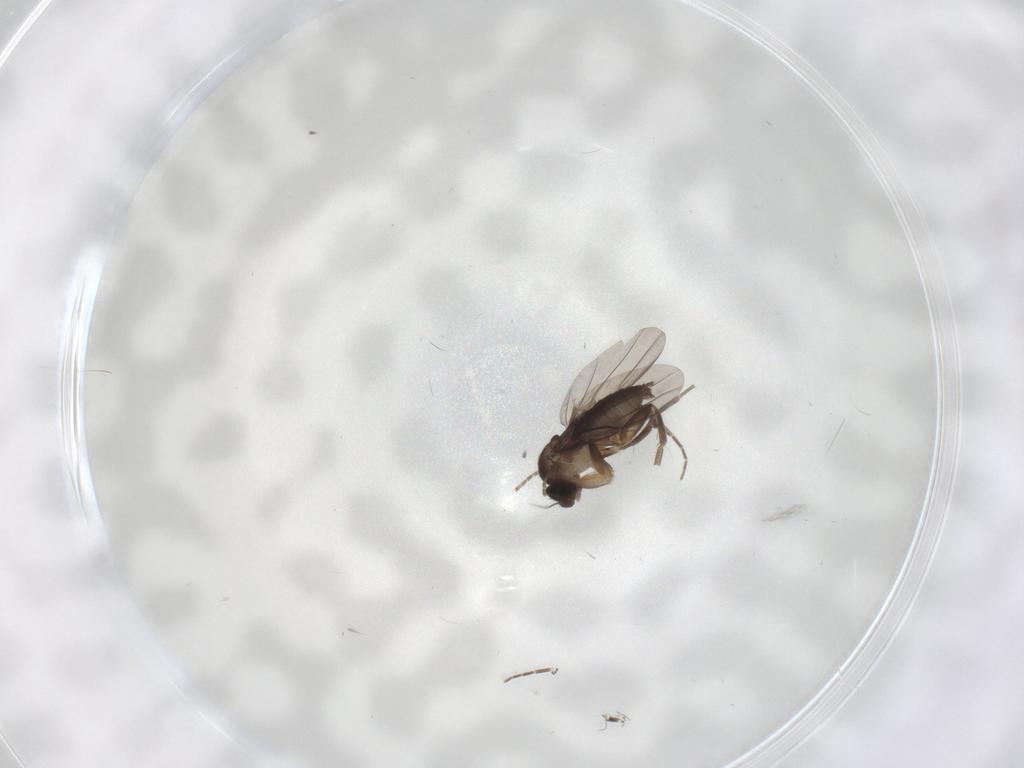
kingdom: Animalia
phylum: Arthropoda
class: Insecta
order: Diptera
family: Phoridae
